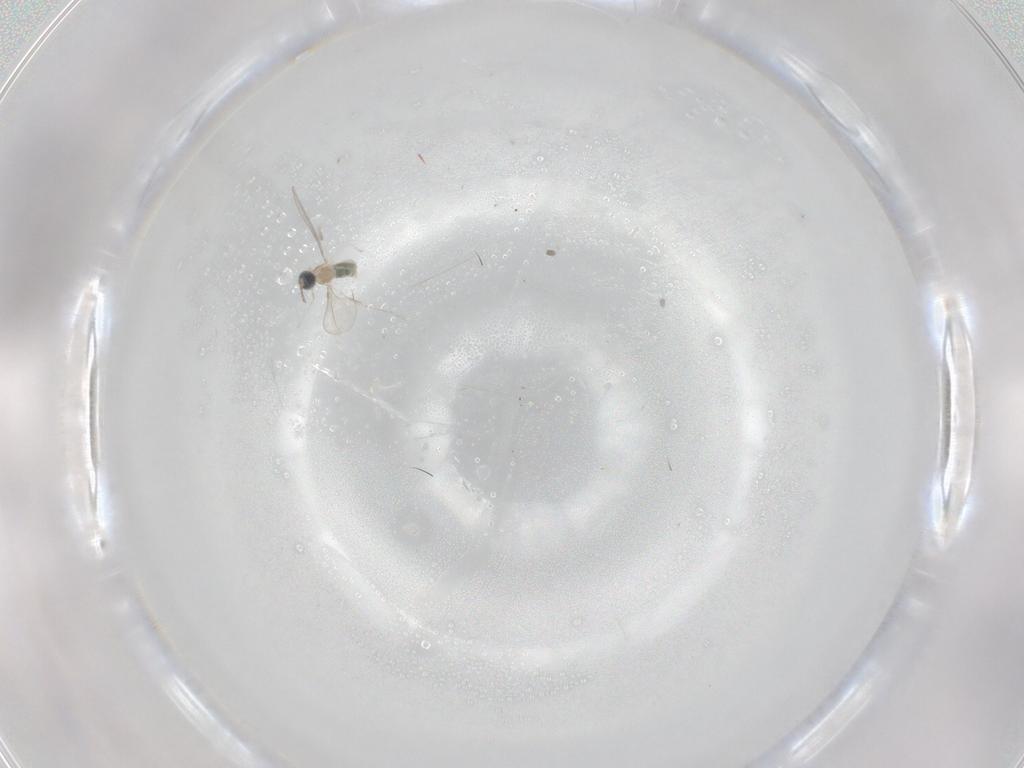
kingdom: Animalia
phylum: Arthropoda
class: Insecta
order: Diptera
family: Cecidomyiidae
